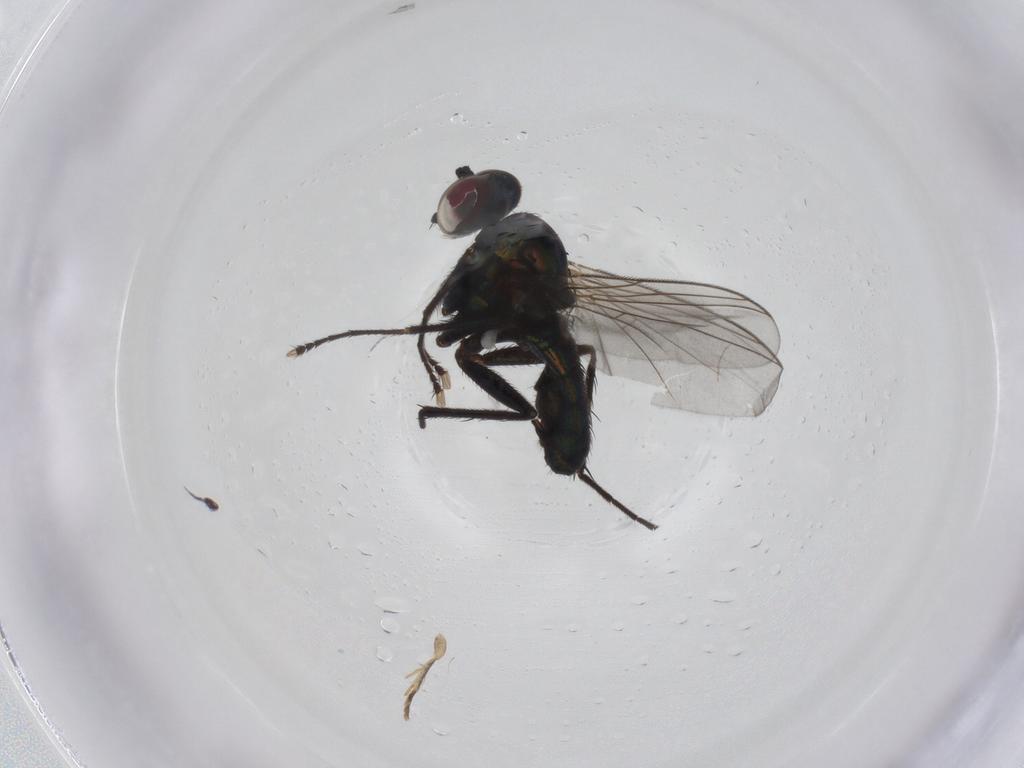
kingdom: Animalia
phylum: Arthropoda
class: Insecta
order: Diptera
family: Dolichopodidae
